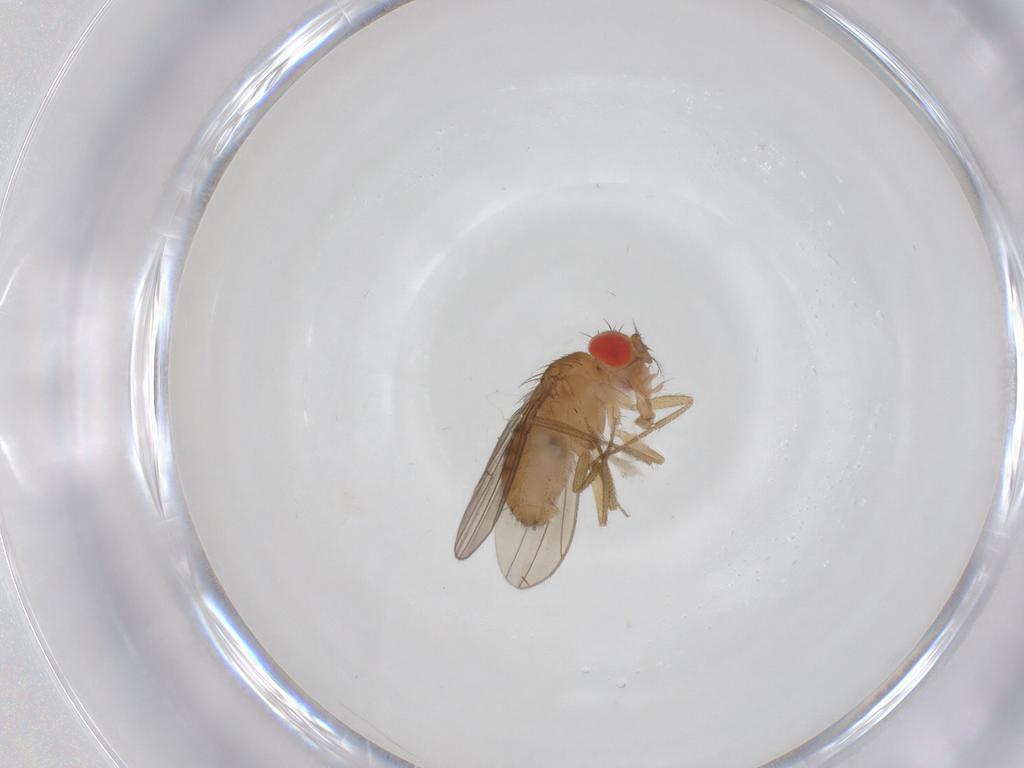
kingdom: Animalia
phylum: Arthropoda
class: Insecta
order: Diptera
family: Drosophilidae
